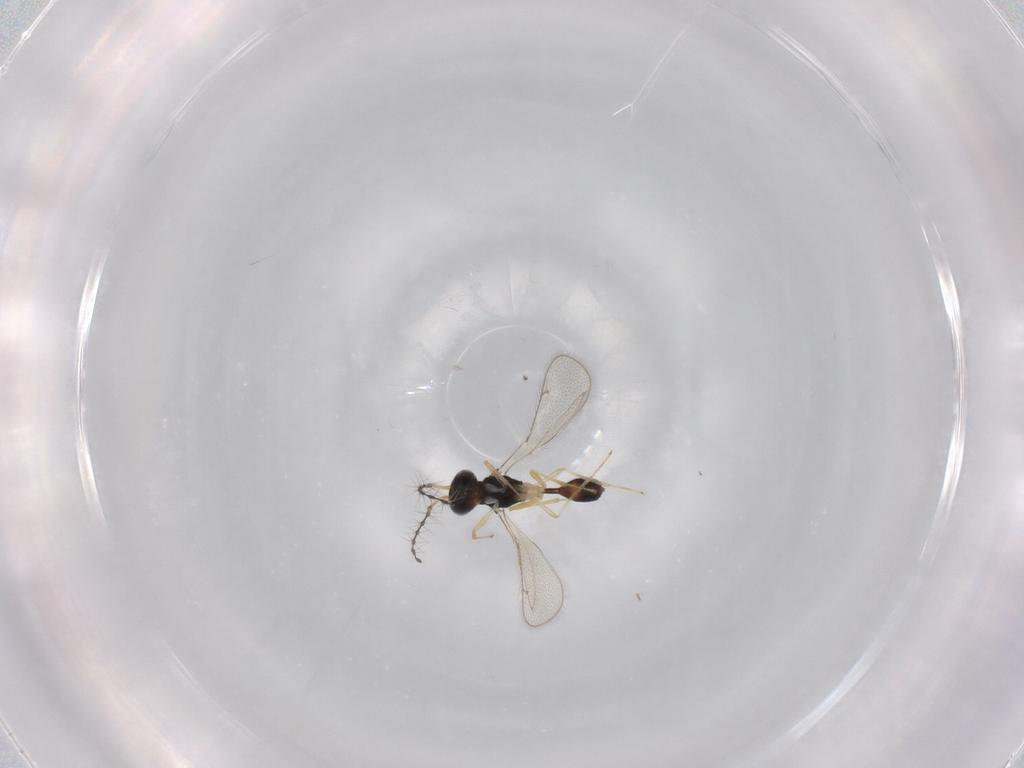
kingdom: Animalia
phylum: Arthropoda
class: Insecta
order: Hymenoptera
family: Diparidae
